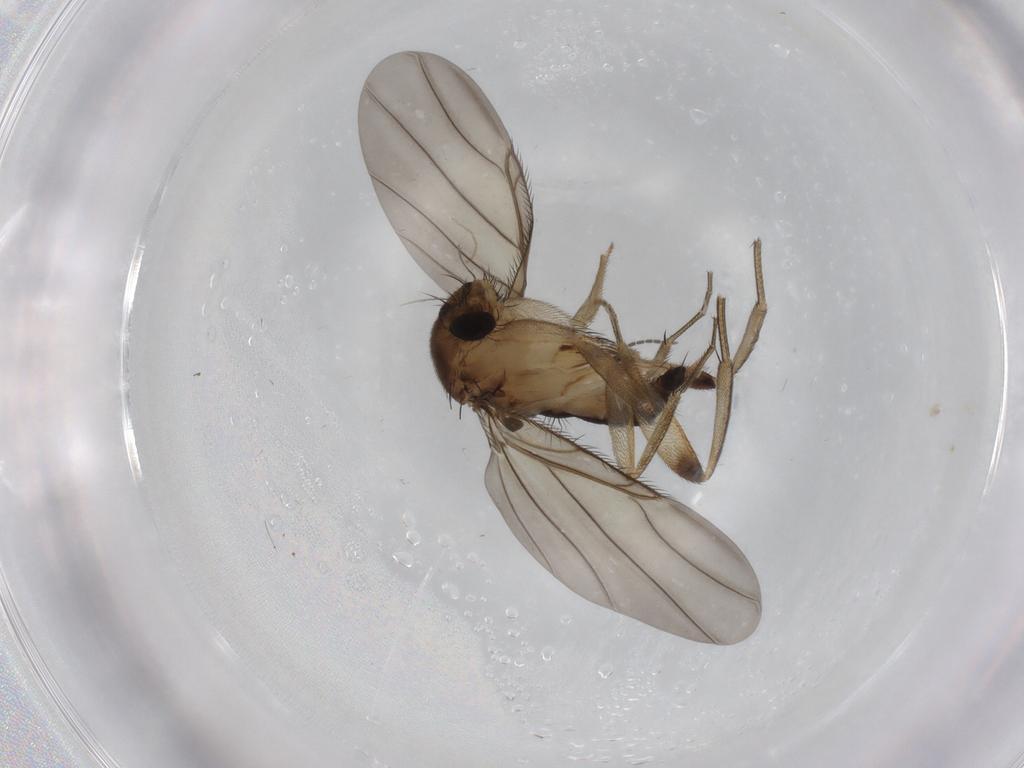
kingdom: Animalia
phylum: Arthropoda
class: Insecta
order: Diptera
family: Phoridae
